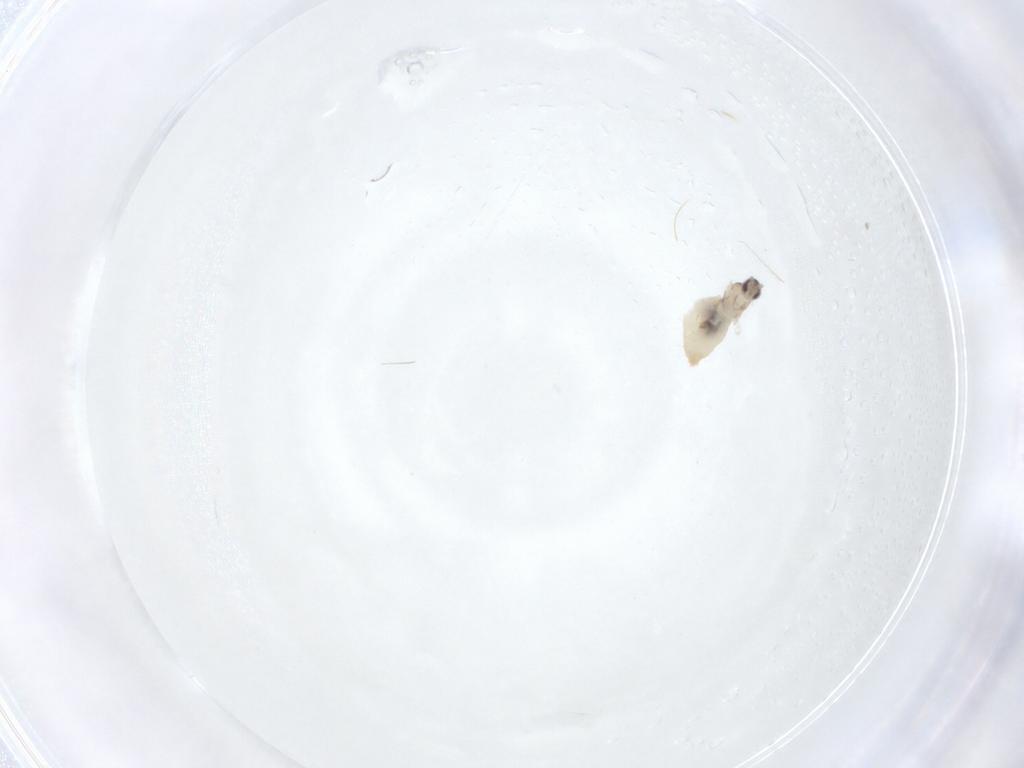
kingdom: Animalia
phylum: Arthropoda
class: Insecta
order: Diptera
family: Cecidomyiidae
